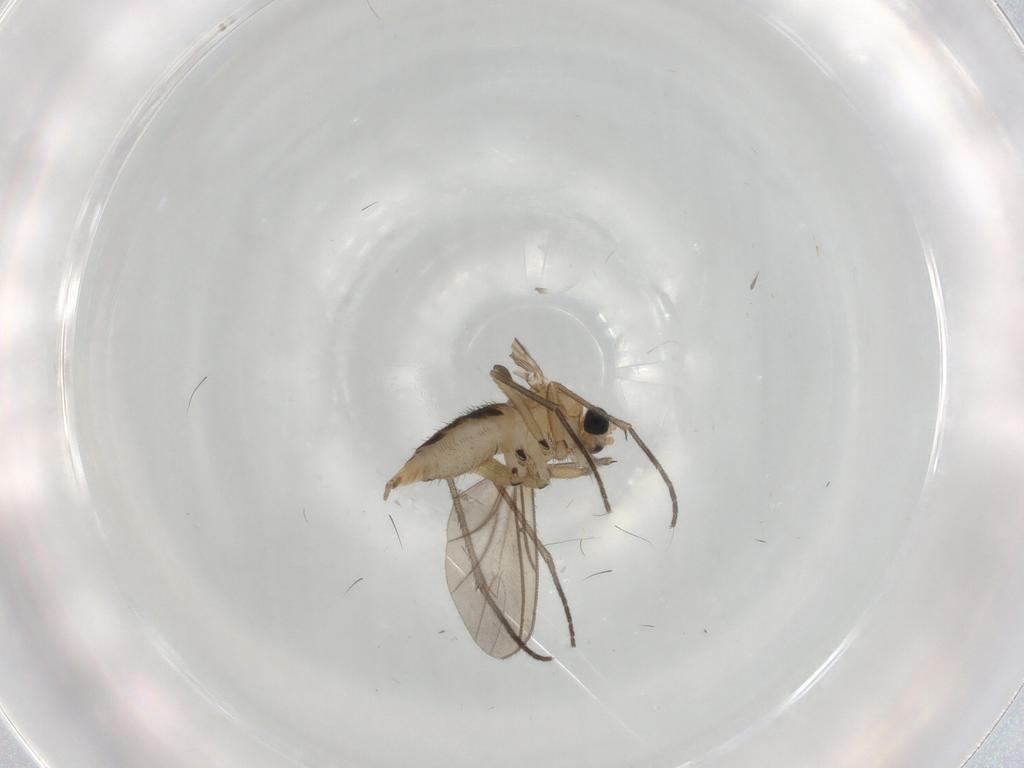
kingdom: Animalia
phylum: Arthropoda
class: Insecta
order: Diptera
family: Sciaridae
